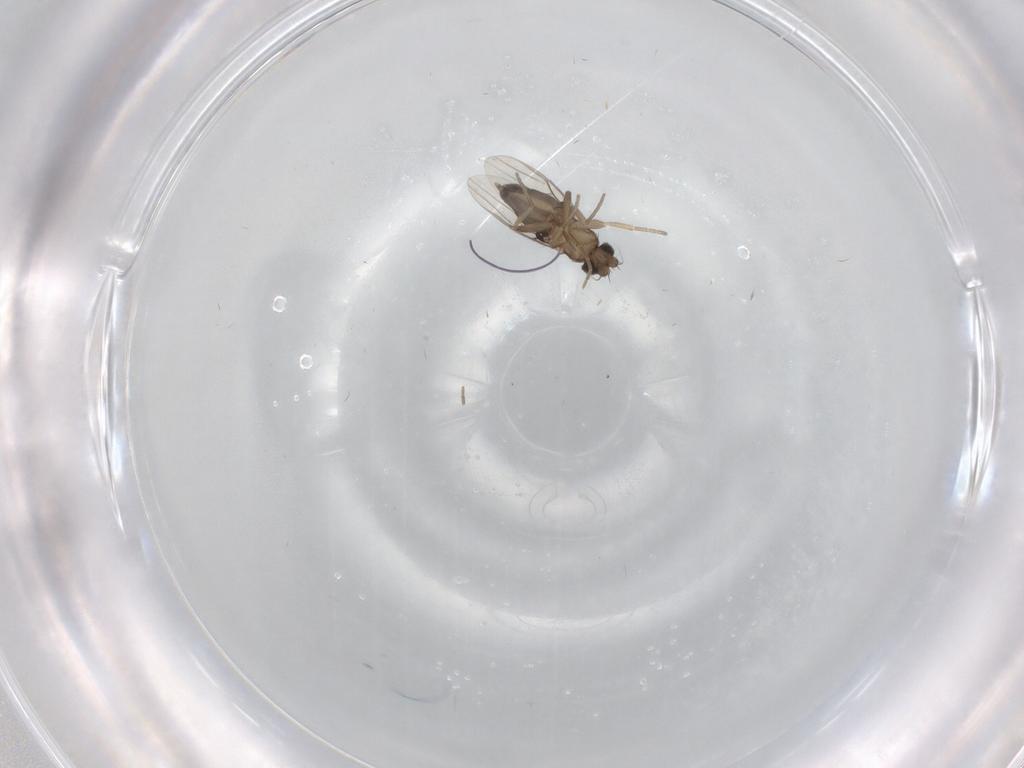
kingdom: Animalia
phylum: Arthropoda
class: Insecta
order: Diptera
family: Phoridae
